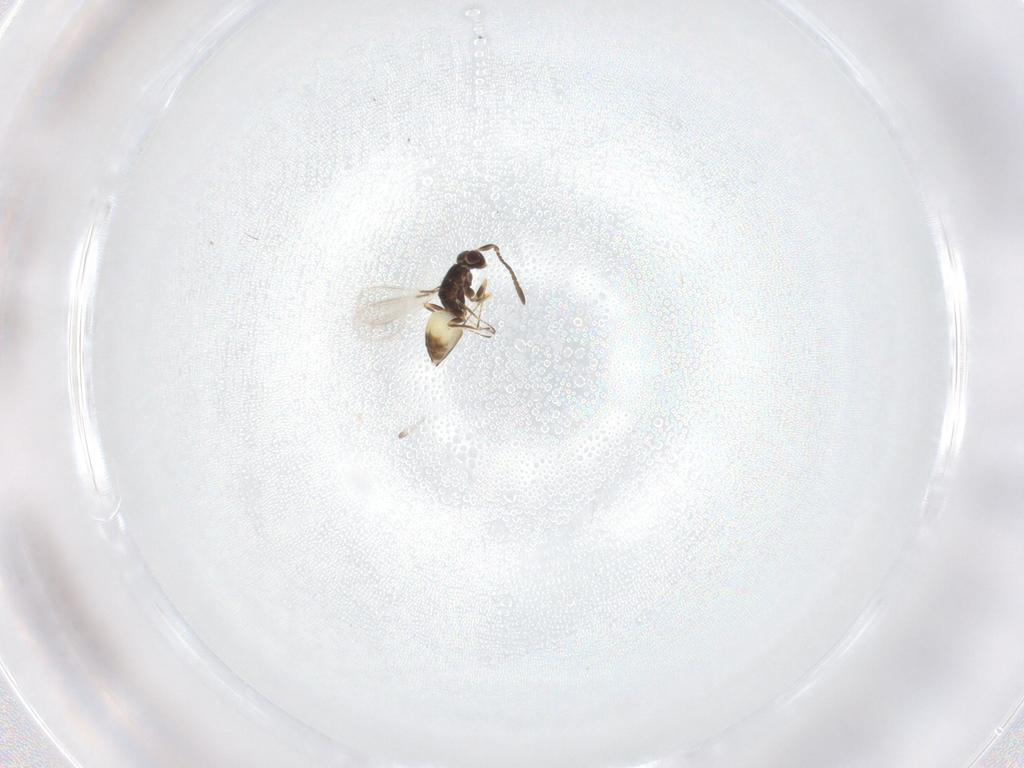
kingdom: Animalia
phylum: Arthropoda
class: Insecta
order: Hymenoptera
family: Mymaridae
